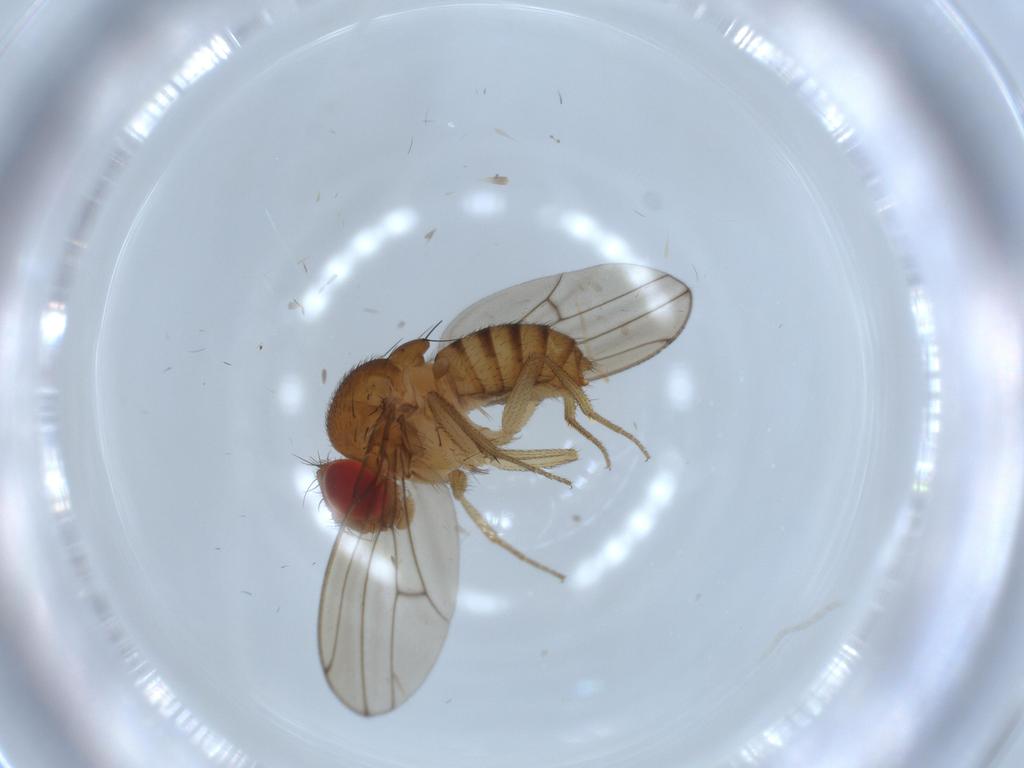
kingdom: Animalia
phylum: Arthropoda
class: Insecta
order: Diptera
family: Drosophilidae
